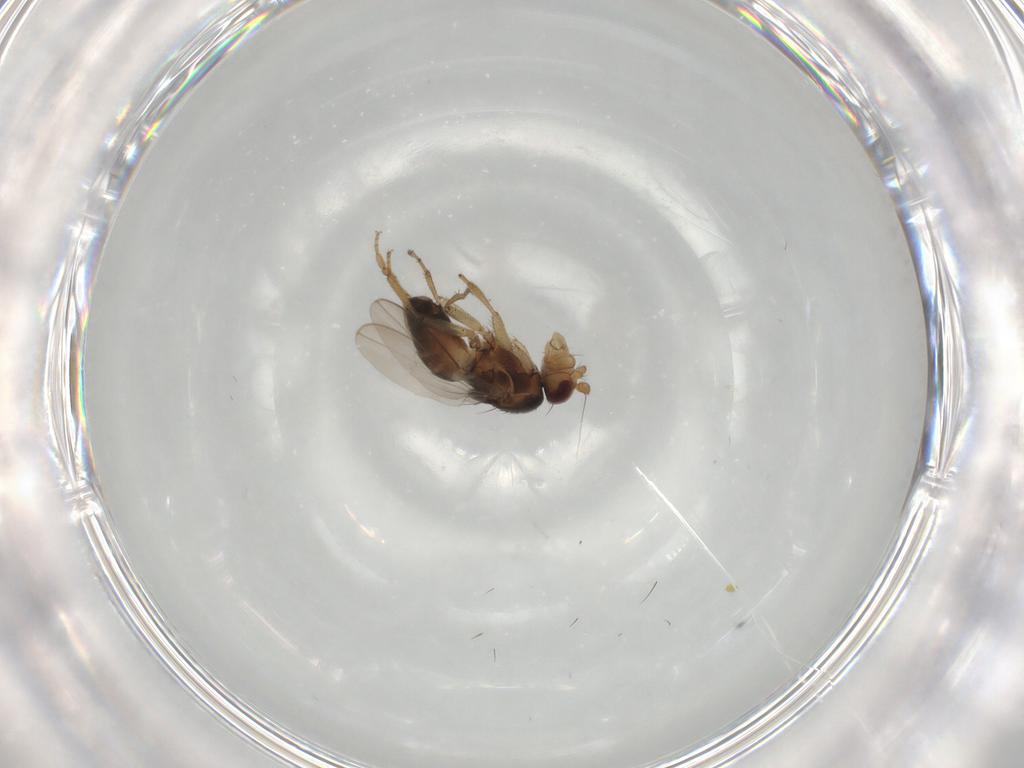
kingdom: Animalia
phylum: Arthropoda
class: Insecta
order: Diptera
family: Sphaeroceridae
